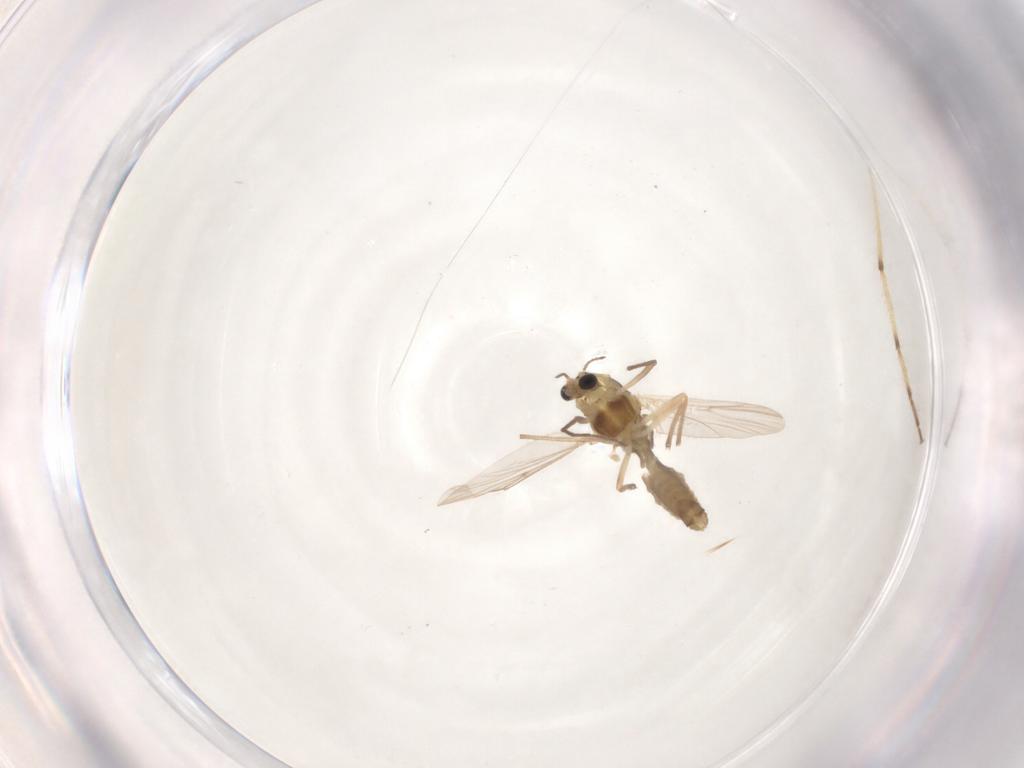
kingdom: Animalia
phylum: Arthropoda
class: Insecta
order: Diptera
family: Chironomidae
